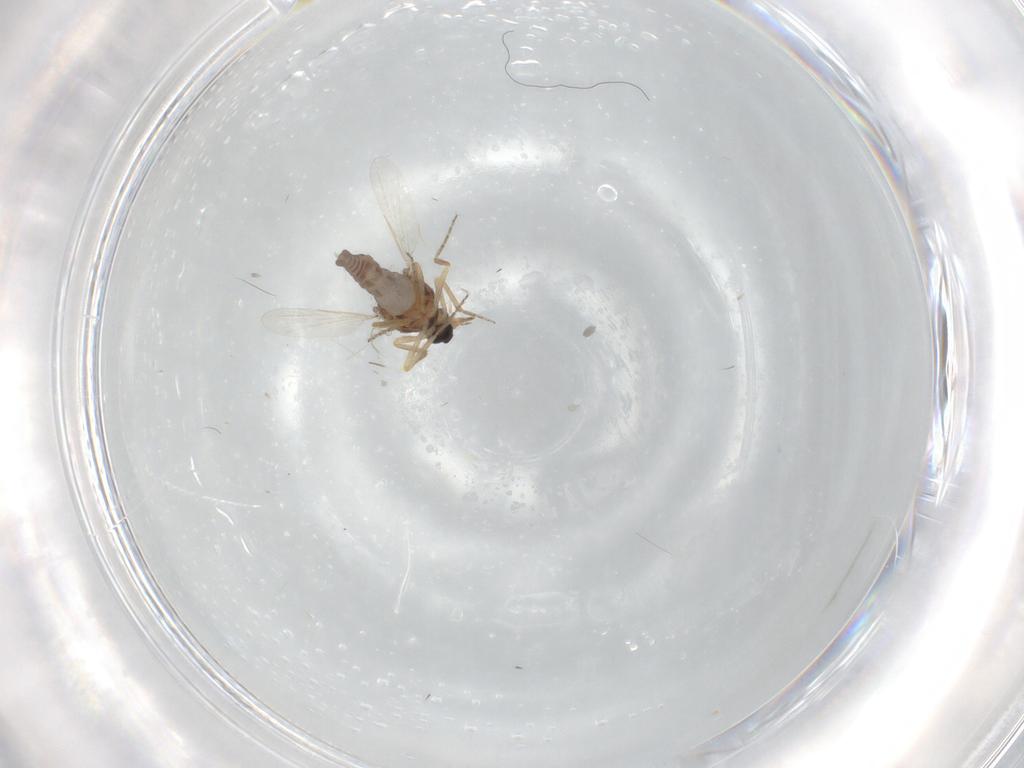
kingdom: Animalia
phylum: Arthropoda
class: Insecta
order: Diptera
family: Ceratopogonidae
